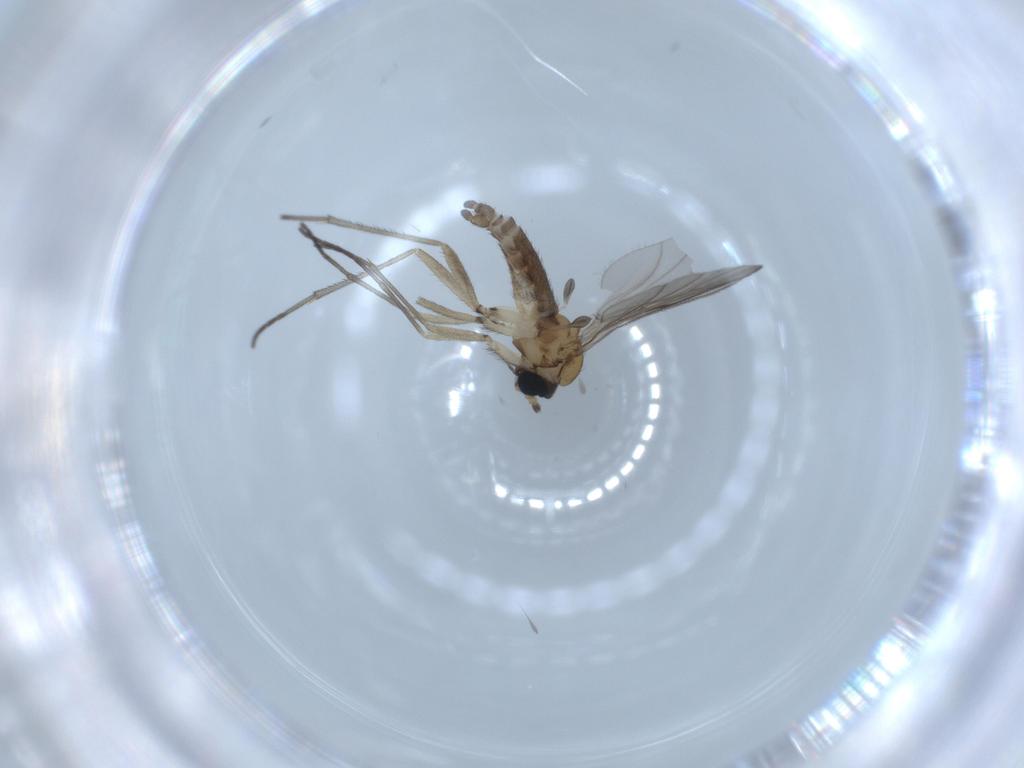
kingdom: Animalia
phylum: Arthropoda
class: Insecta
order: Diptera
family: Sciaridae
